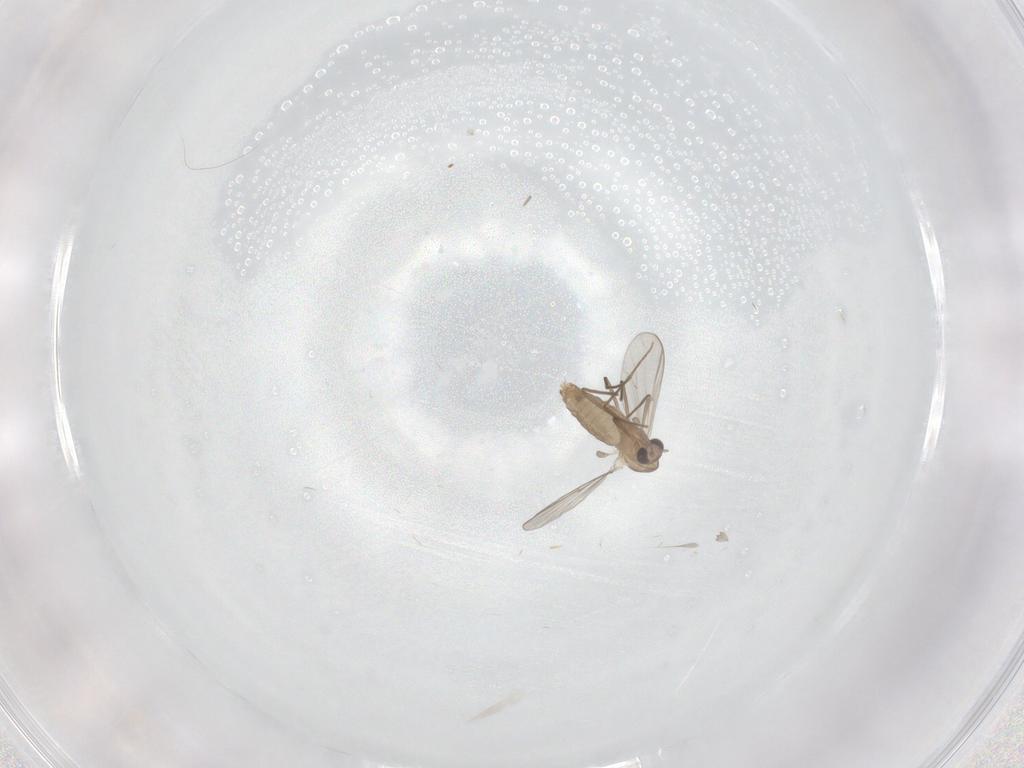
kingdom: Animalia
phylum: Arthropoda
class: Insecta
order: Diptera
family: Chironomidae
